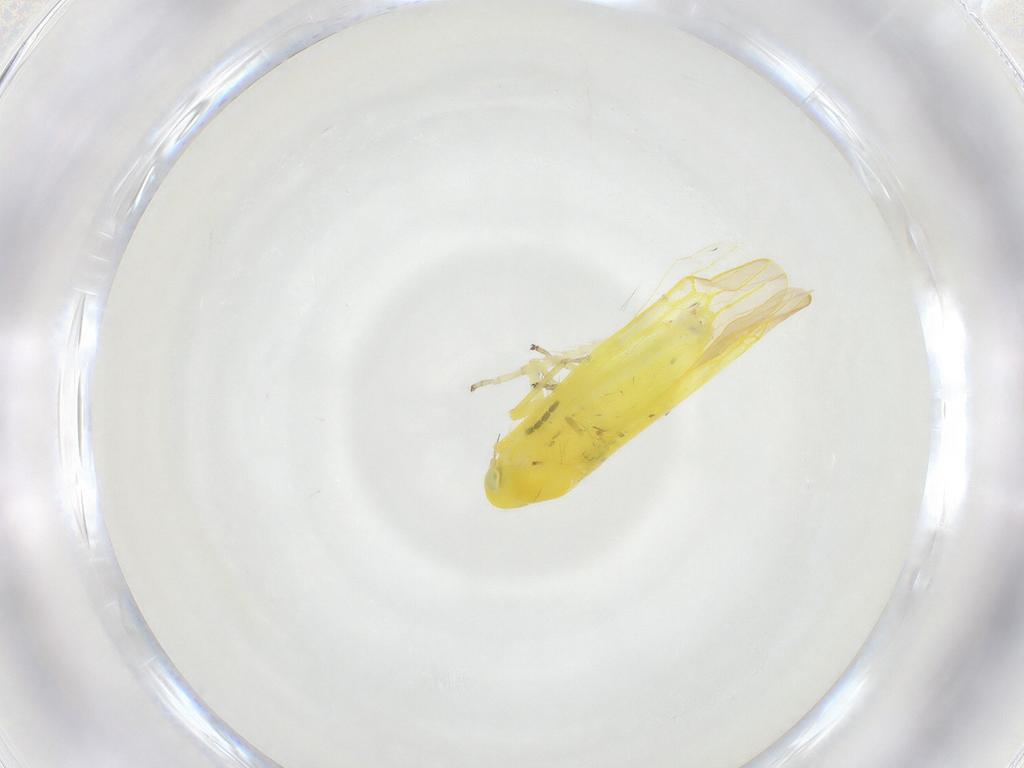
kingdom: Animalia
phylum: Arthropoda
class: Insecta
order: Hemiptera
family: Cicadellidae
